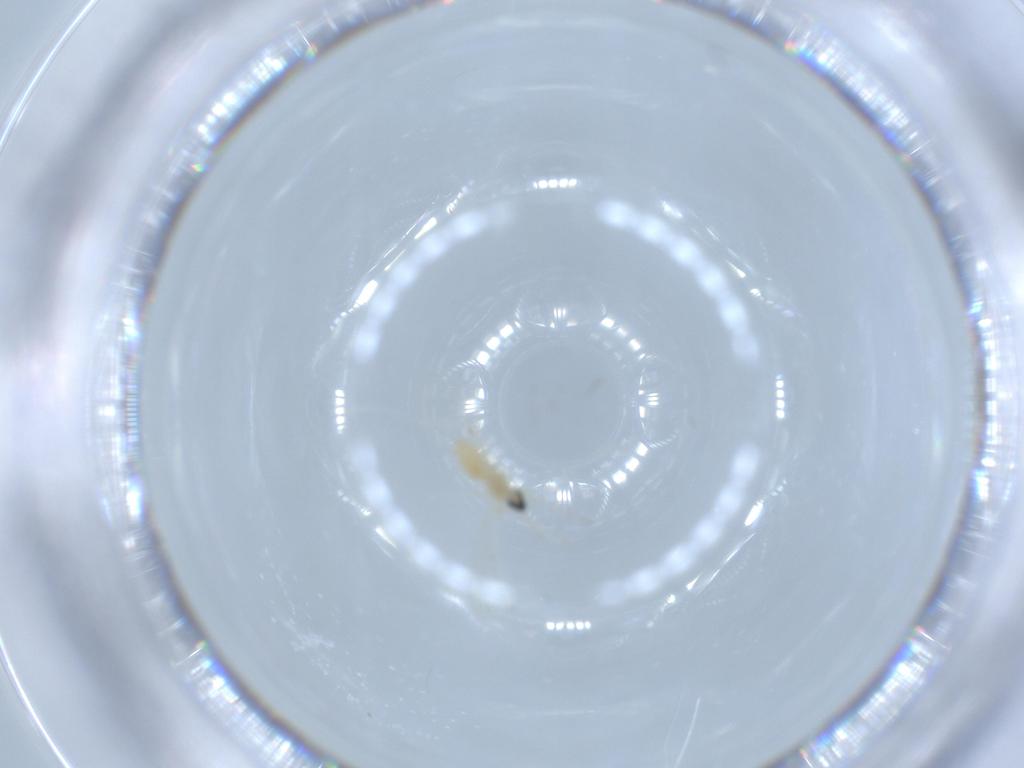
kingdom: Animalia
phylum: Arthropoda
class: Insecta
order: Diptera
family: Cecidomyiidae
